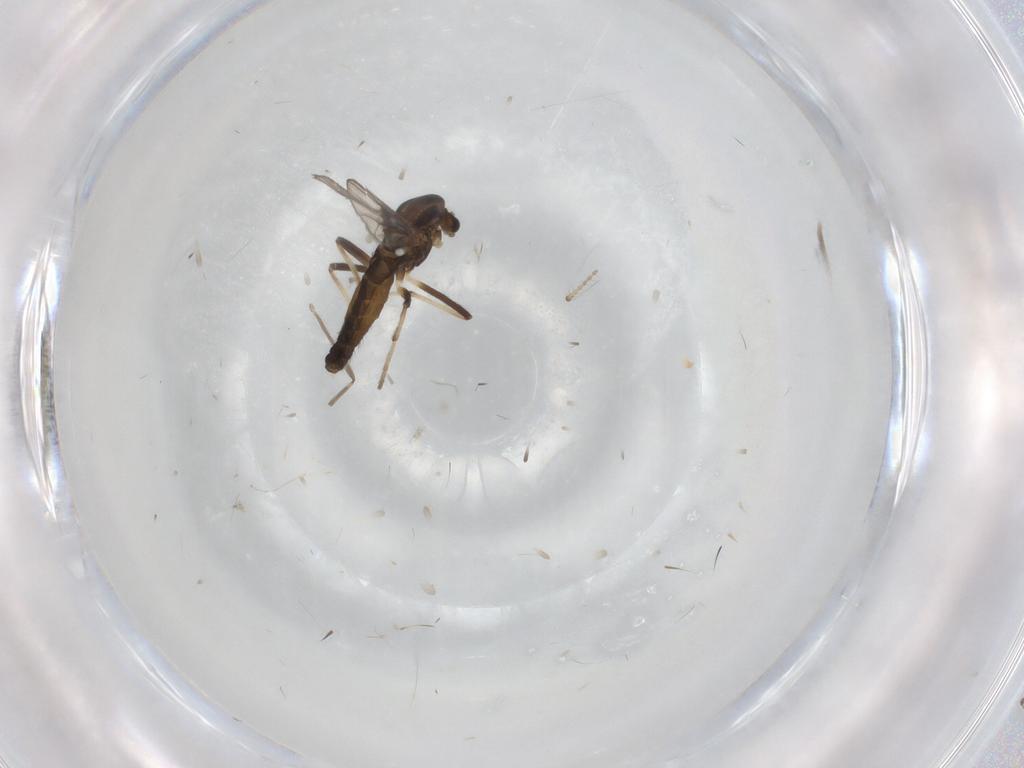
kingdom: Animalia
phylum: Arthropoda
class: Insecta
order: Diptera
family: Chironomidae
